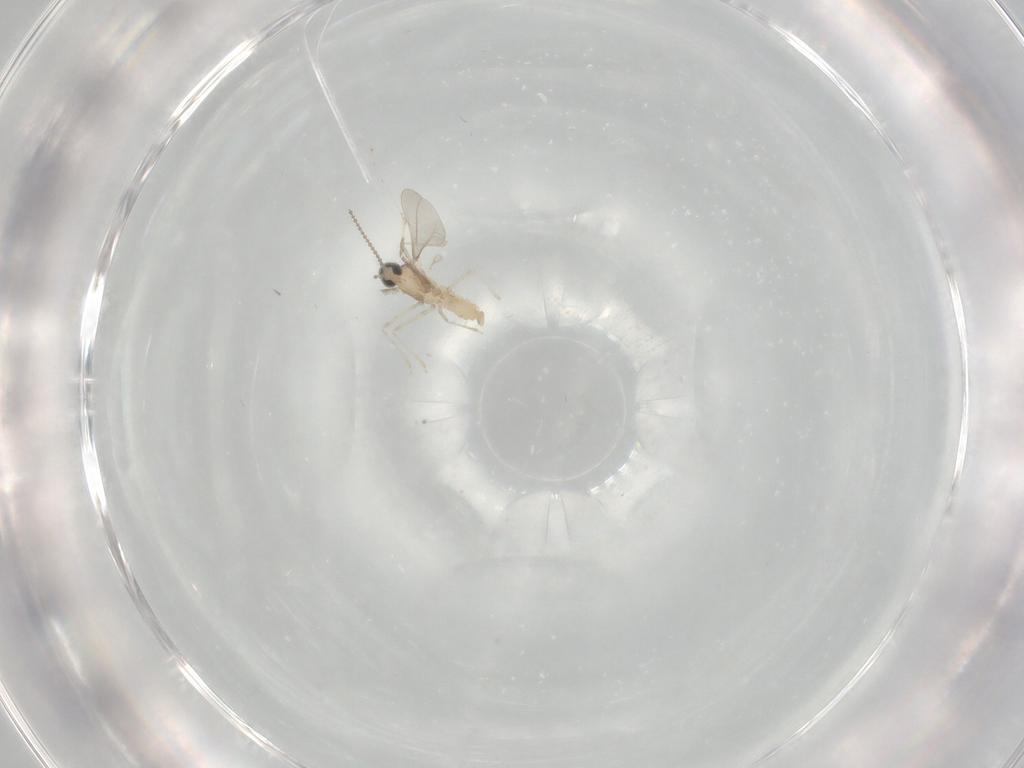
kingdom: Animalia
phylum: Arthropoda
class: Insecta
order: Diptera
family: Cecidomyiidae
